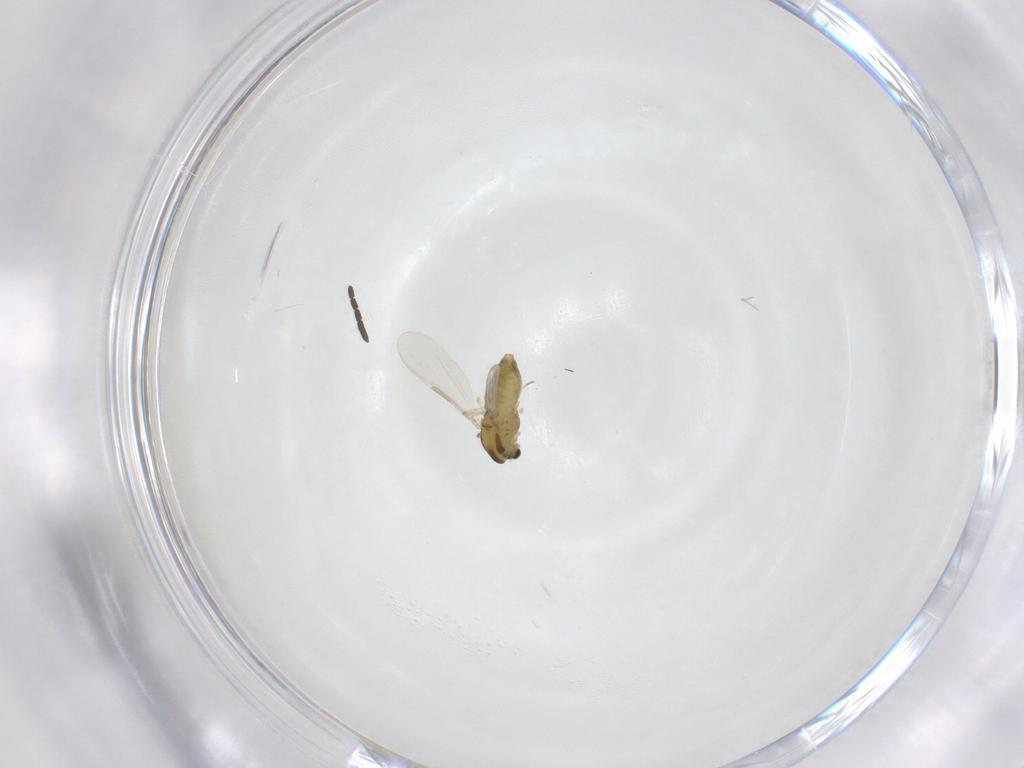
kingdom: Animalia
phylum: Arthropoda
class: Insecta
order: Diptera
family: Chironomidae
